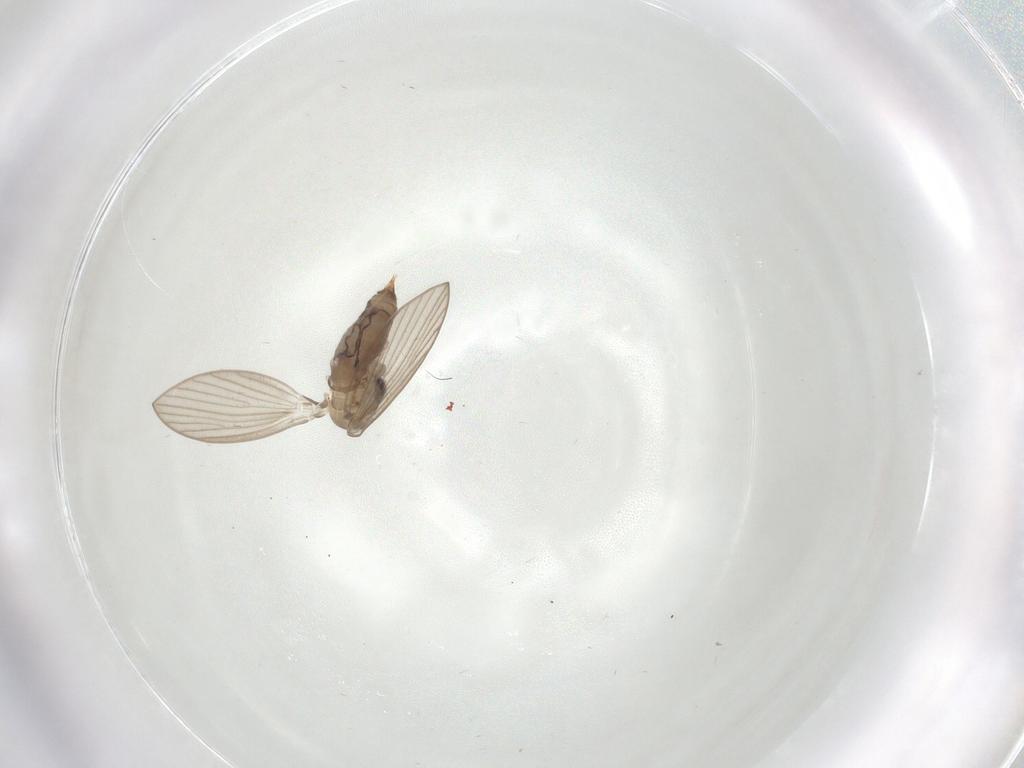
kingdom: Animalia
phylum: Arthropoda
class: Insecta
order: Diptera
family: Psychodidae
